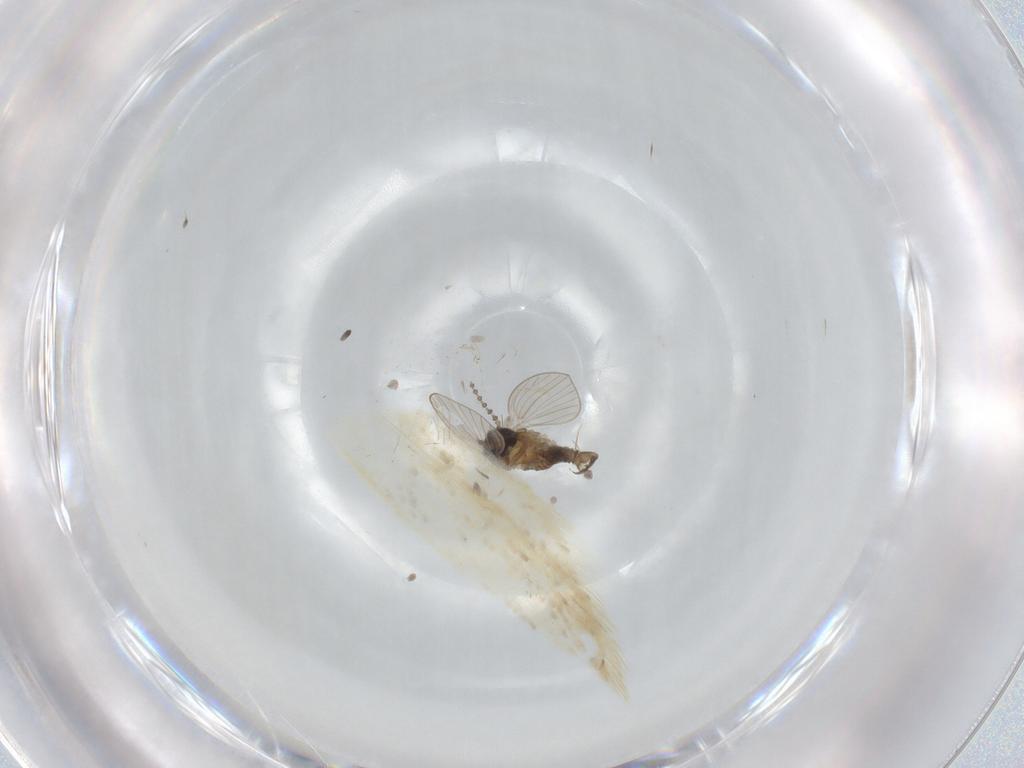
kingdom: Animalia
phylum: Arthropoda
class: Insecta
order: Diptera
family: Psychodidae
